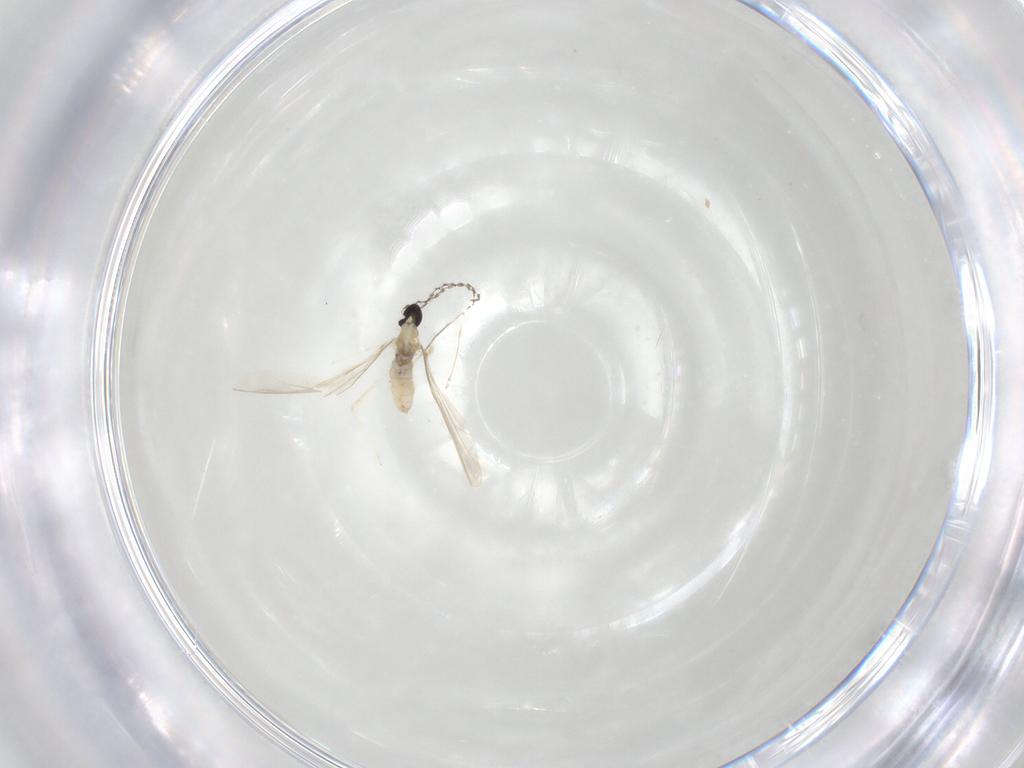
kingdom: Animalia
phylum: Arthropoda
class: Insecta
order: Diptera
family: Cecidomyiidae
